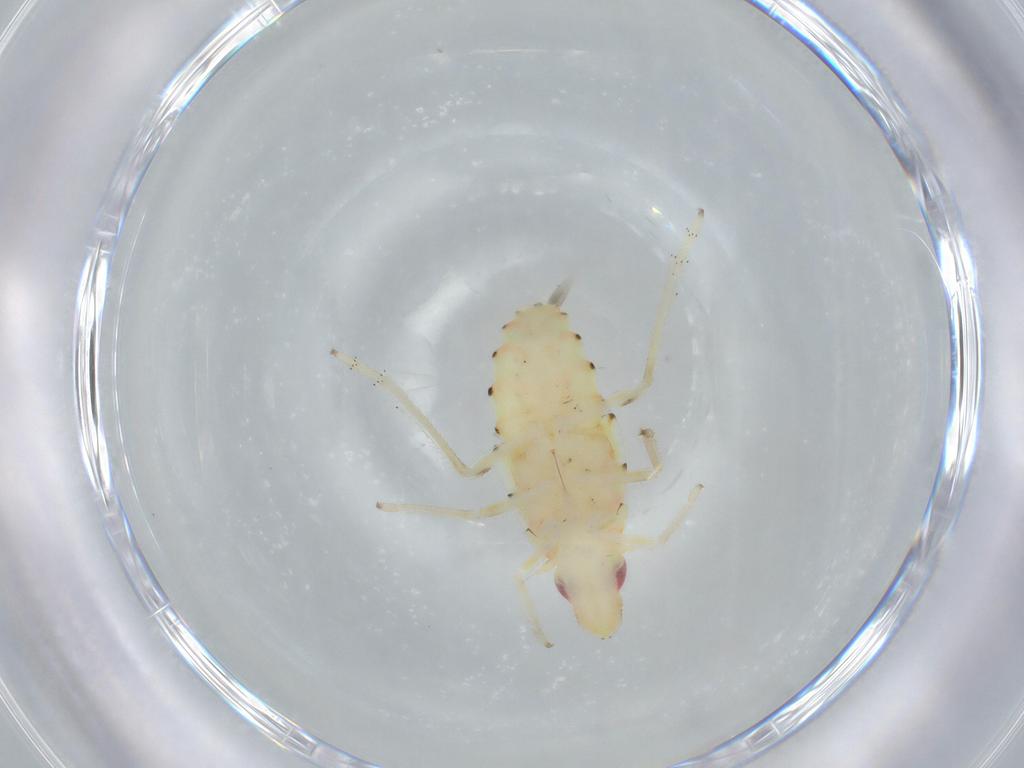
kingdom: Animalia
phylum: Arthropoda
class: Insecta
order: Hemiptera
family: Tropiduchidae
